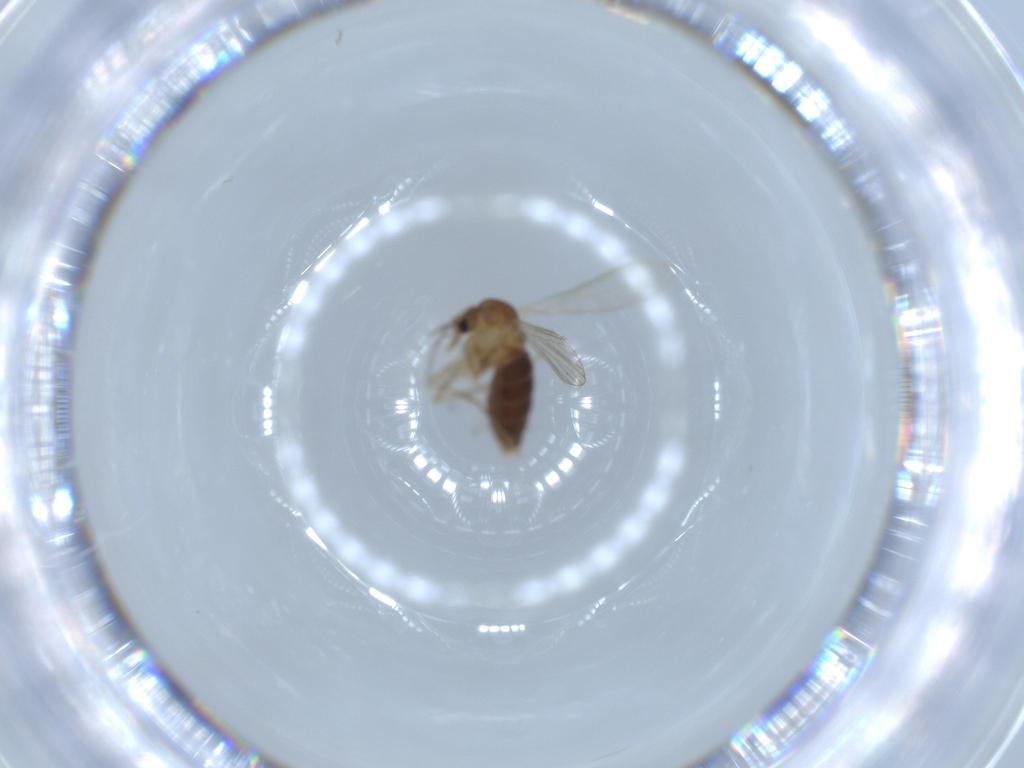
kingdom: Animalia
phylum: Arthropoda
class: Insecta
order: Diptera
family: Psychodidae
